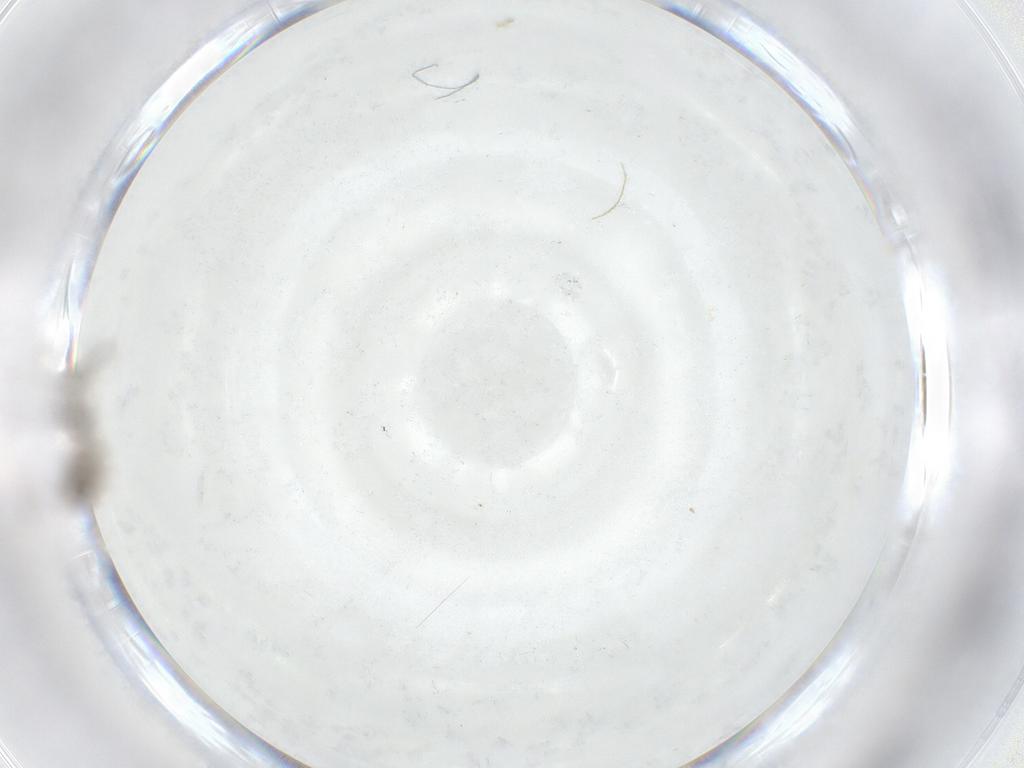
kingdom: Animalia
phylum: Arthropoda
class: Insecta
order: Diptera
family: Chironomidae
